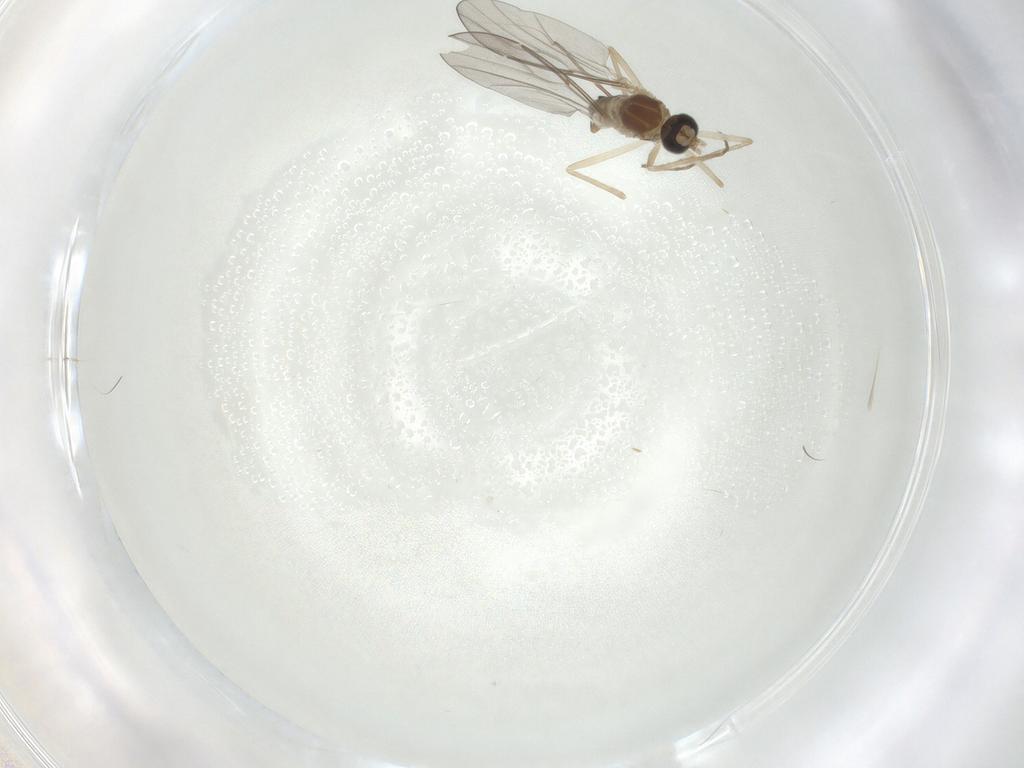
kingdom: Animalia
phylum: Arthropoda
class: Insecta
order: Diptera
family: Cecidomyiidae
